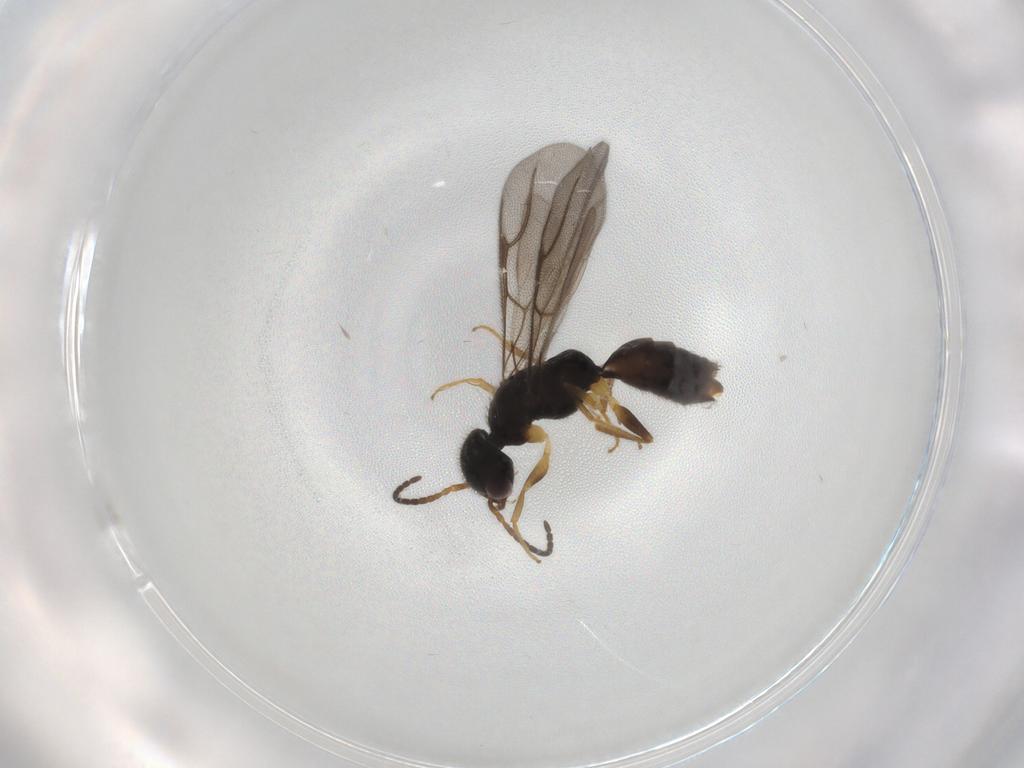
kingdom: Animalia
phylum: Arthropoda
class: Insecta
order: Hymenoptera
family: Bethylidae
